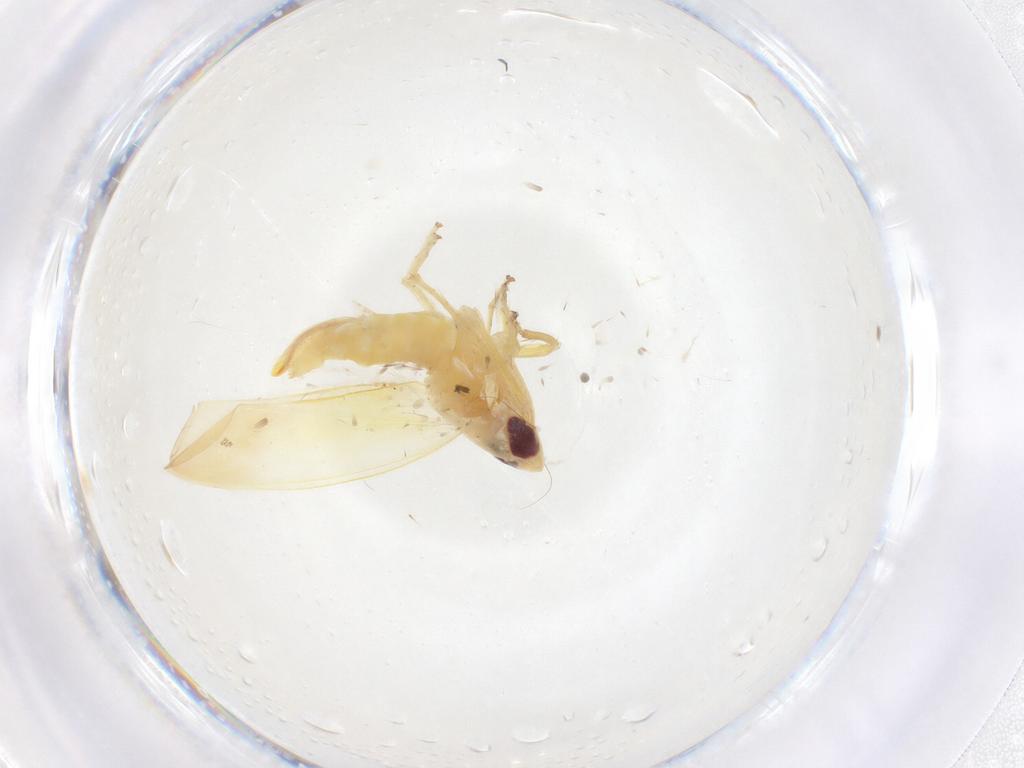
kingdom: Animalia
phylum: Arthropoda
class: Insecta
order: Hemiptera
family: Cicadellidae
